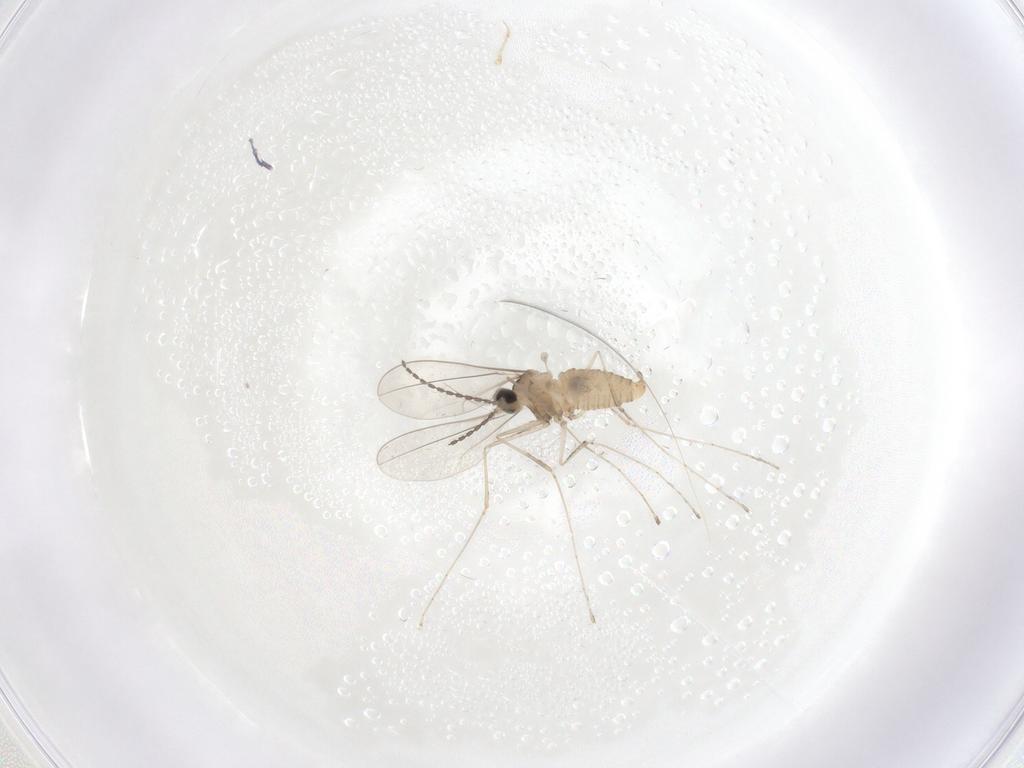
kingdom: Animalia
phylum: Arthropoda
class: Insecta
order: Diptera
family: Cecidomyiidae
